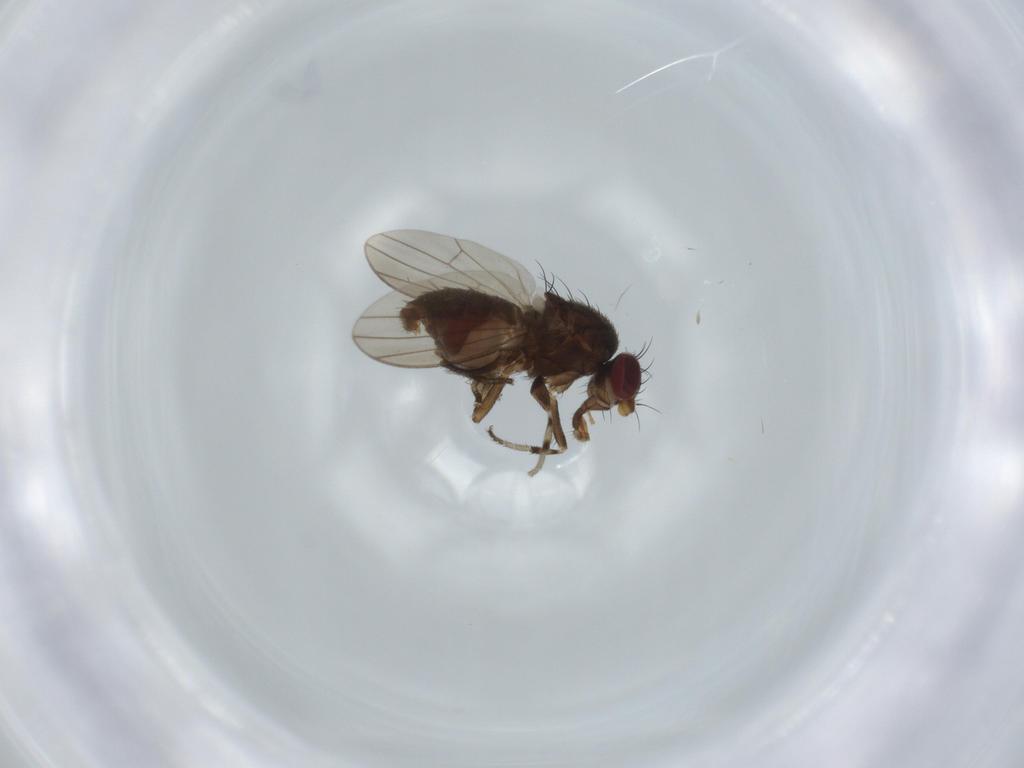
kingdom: Animalia
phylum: Arthropoda
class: Insecta
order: Diptera
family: Heleomyzidae
